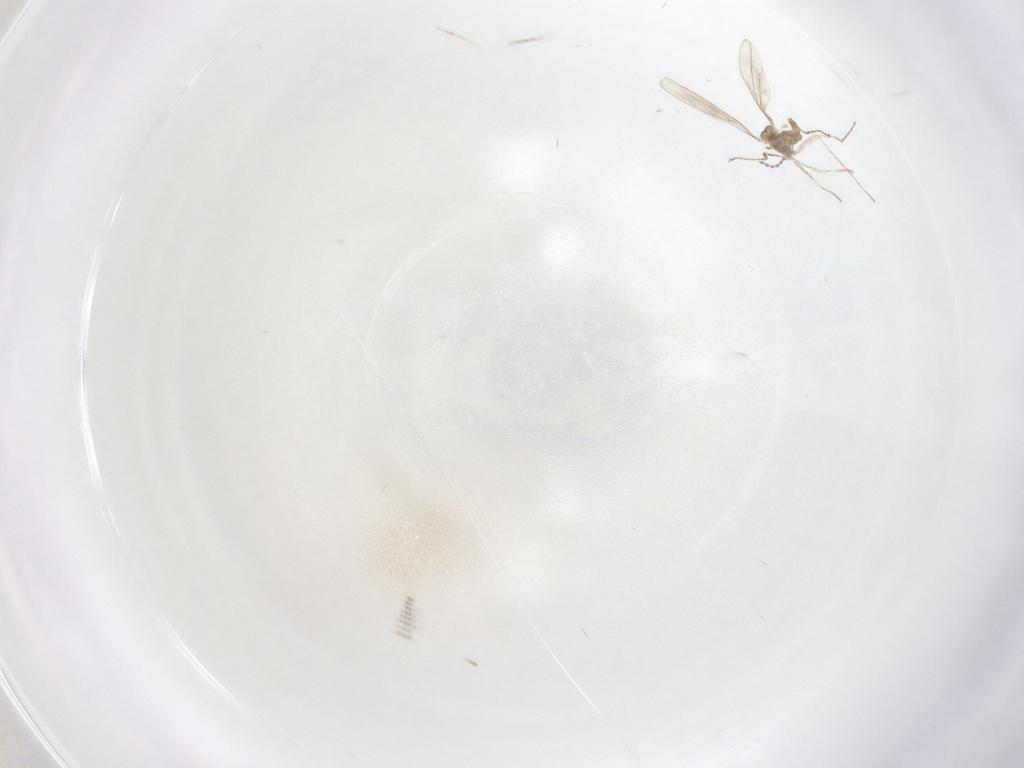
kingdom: Animalia
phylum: Arthropoda
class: Insecta
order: Diptera
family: Cecidomyiidae
